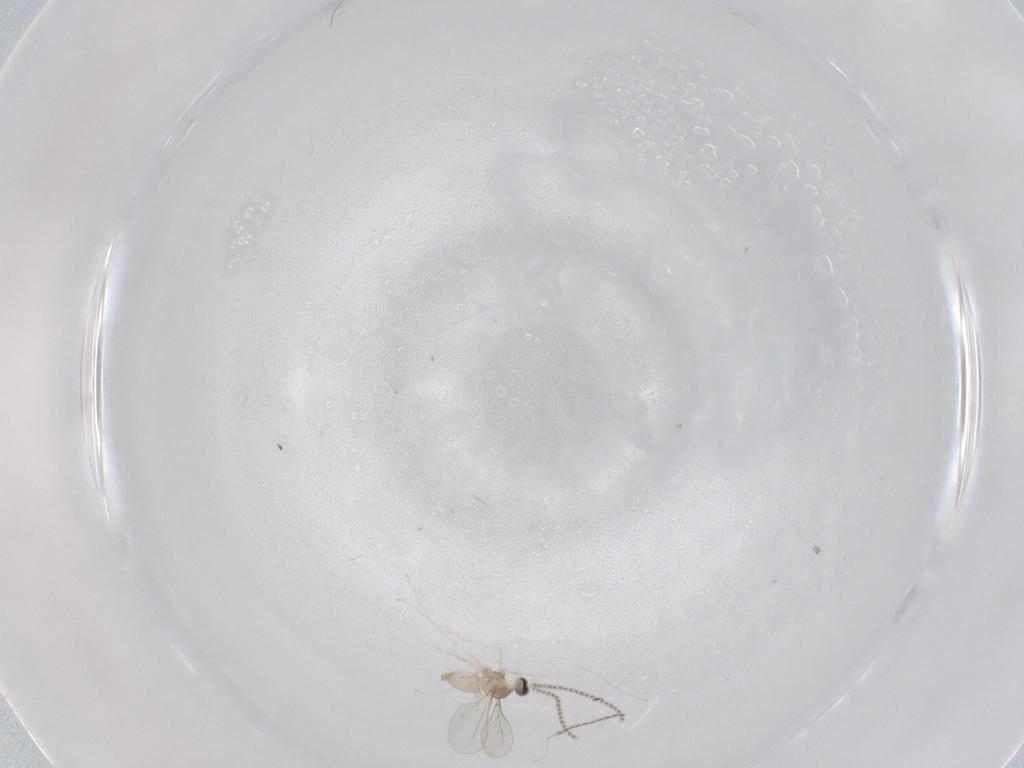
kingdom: Animalia
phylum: Arthropoda
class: Insecta
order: Diptera
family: Cecidomyiidae
